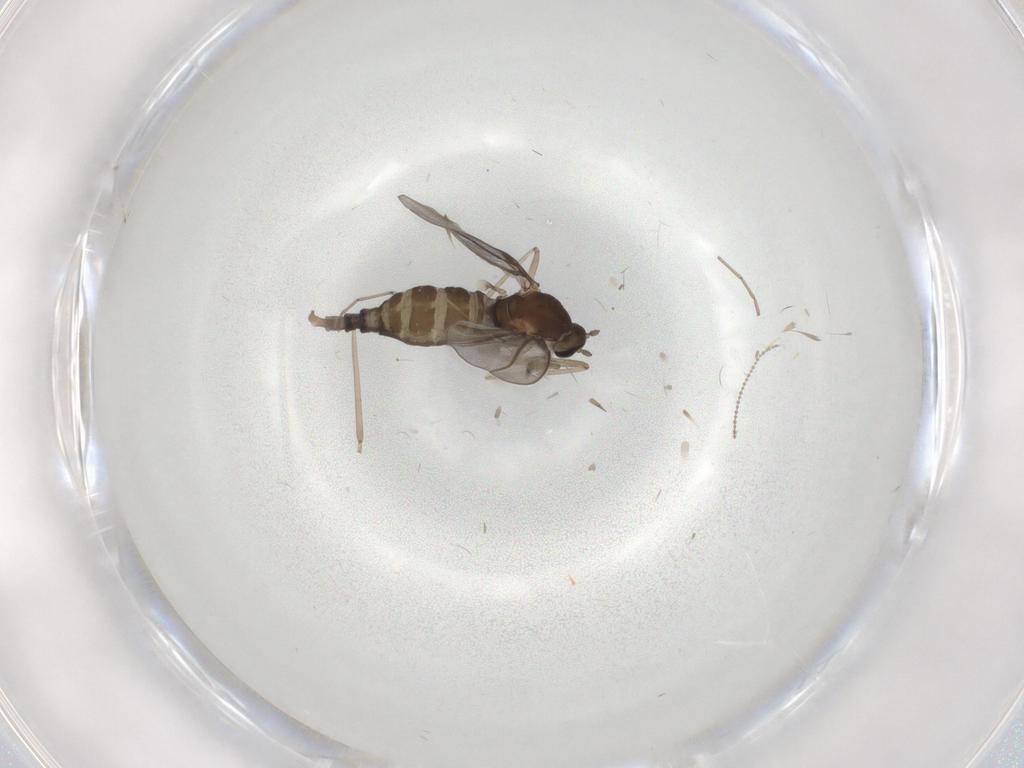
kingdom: Animalia
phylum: Arthropoda
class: Insecta
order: Diptera
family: Cecidomyiidae
